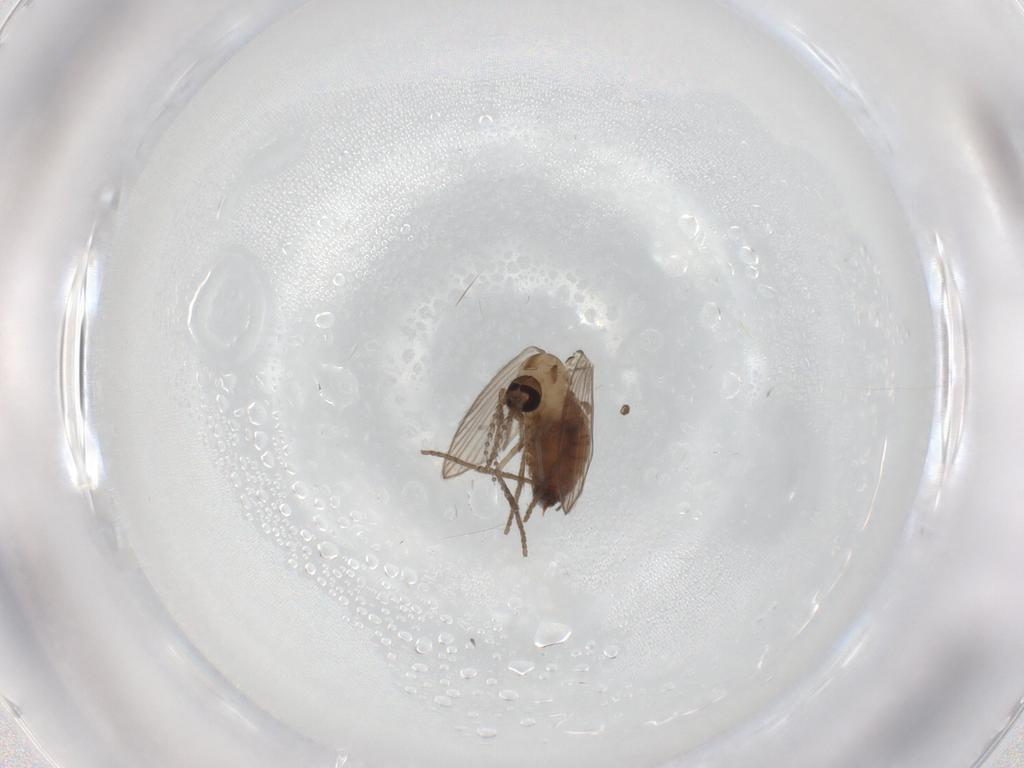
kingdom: Animalia
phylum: Arthropoda
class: Insecta
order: Diptera
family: Psychodidae
